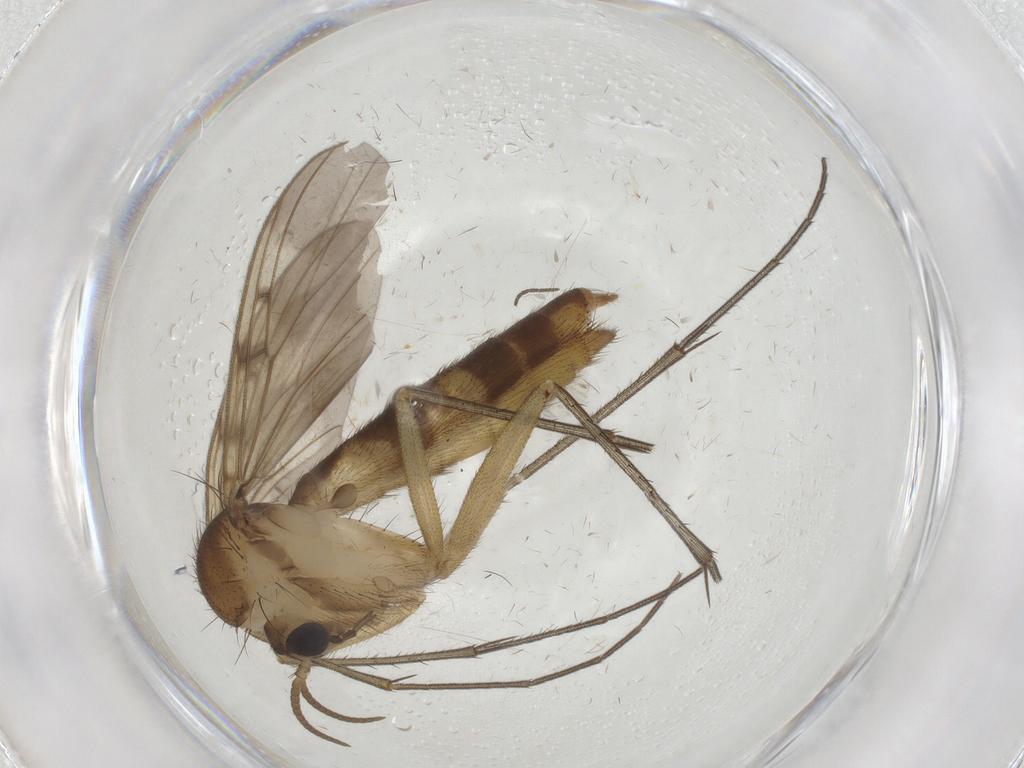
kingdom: Animalia
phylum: Arthropoda
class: Insecta
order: Diptera
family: Mycetophilidae
